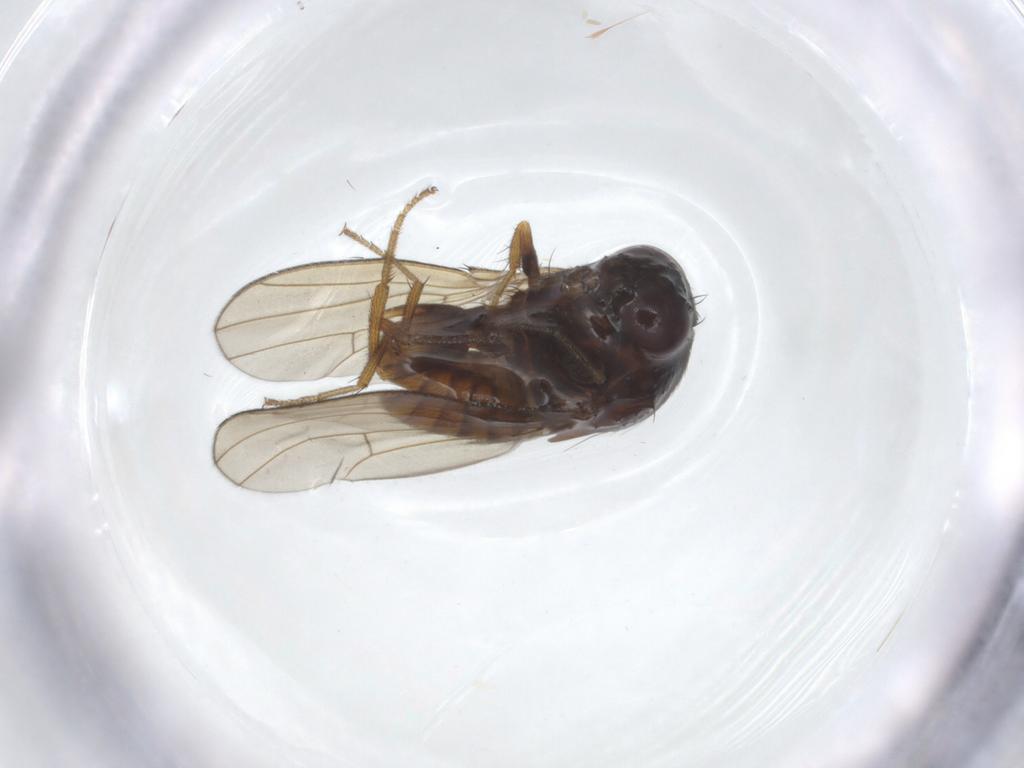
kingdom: Animalia
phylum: Arthropoda
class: Insecta
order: Diptera
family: Drosophilidae
